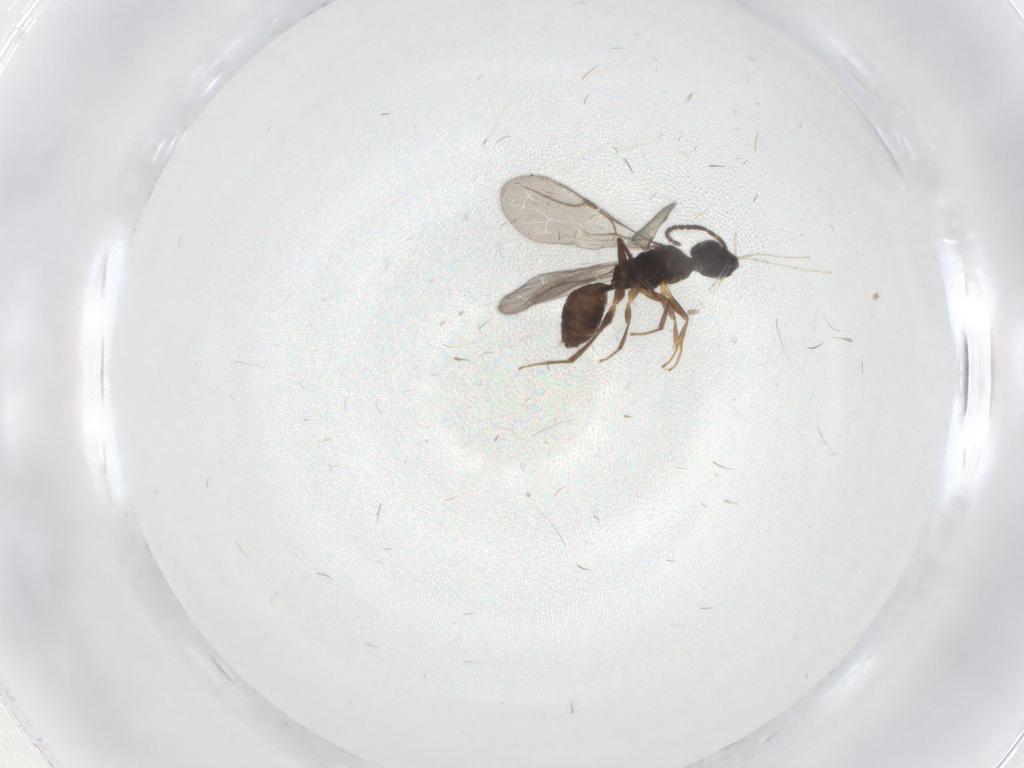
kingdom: Animalia
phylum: Arthropoda
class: Insecta
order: Hymenoptera
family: Bethylidae
